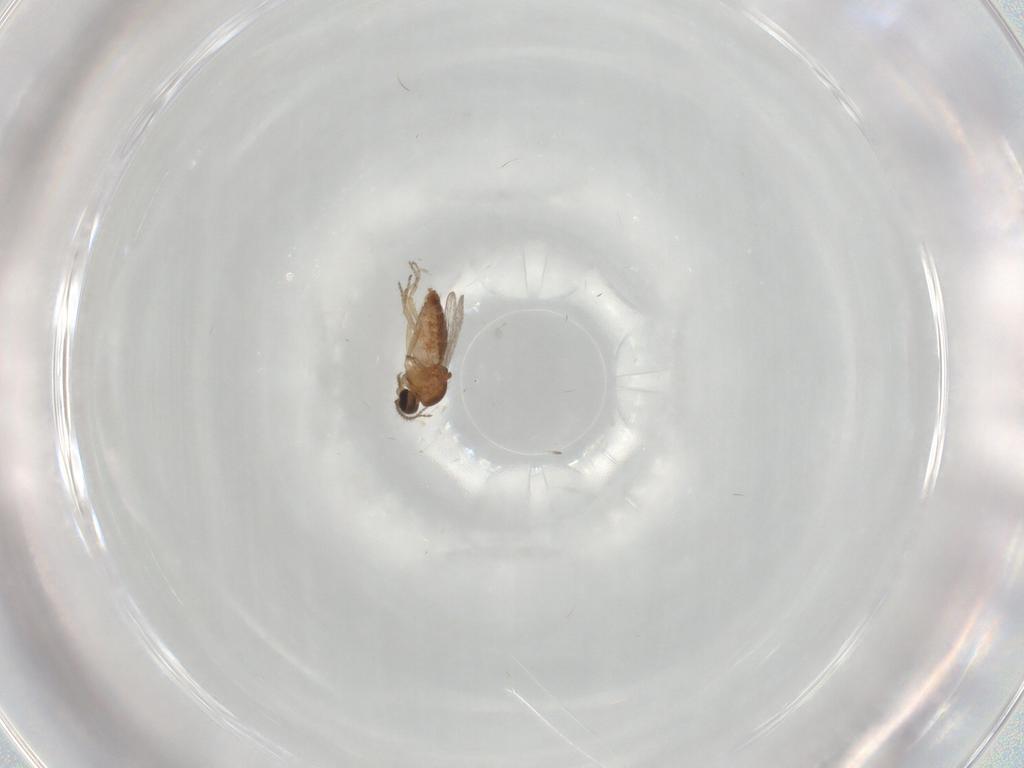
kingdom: Animalia
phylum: Arthropoda
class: Insecta
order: Diptera
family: Ceratopogonidae
